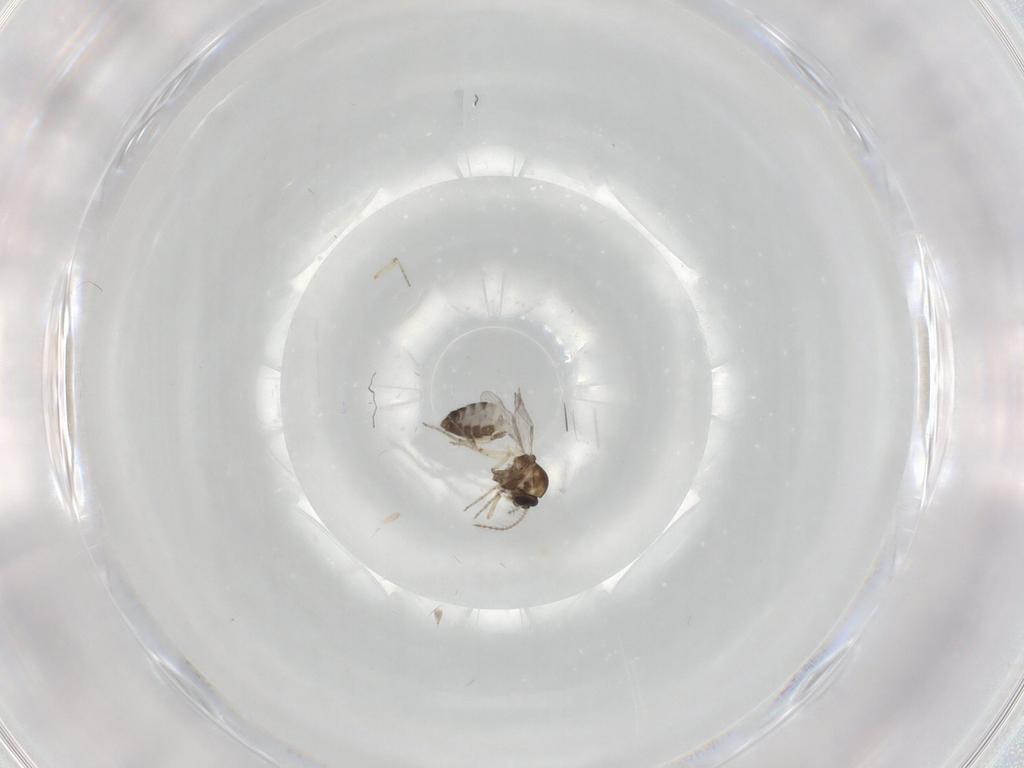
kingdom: Animalia
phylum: Arthropoda
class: Insecta
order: Diptera
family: Ceratopogonidae
